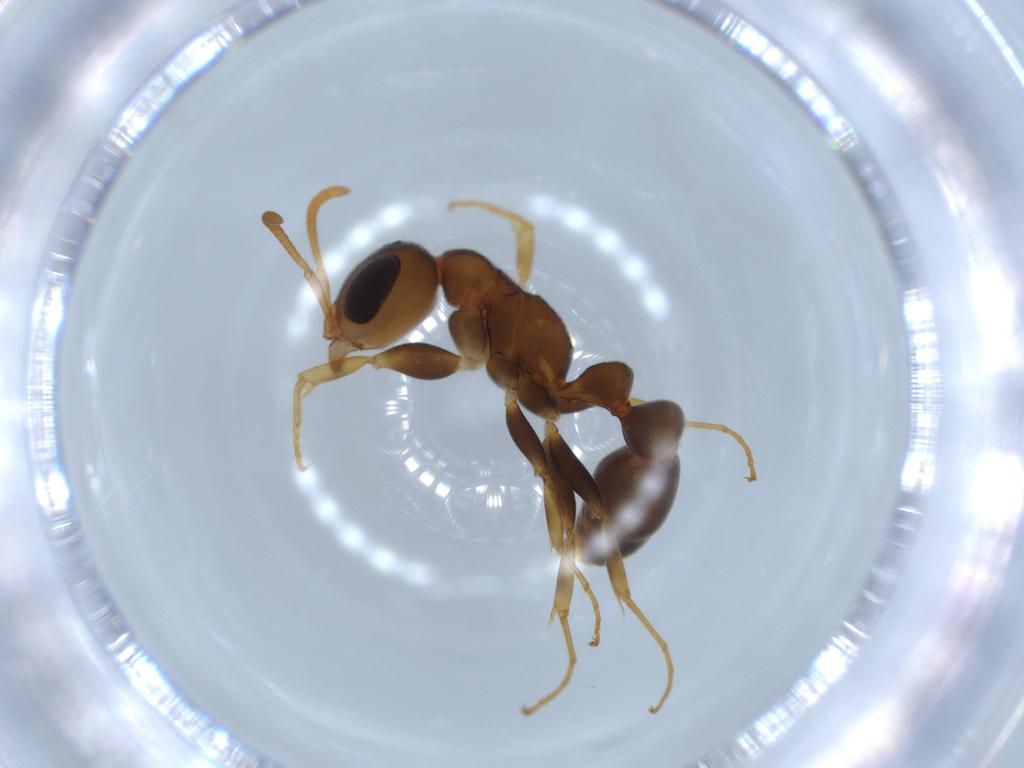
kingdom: Animalia
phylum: Arthropoda
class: Insecta
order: Hymenoptera
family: Formicidae
